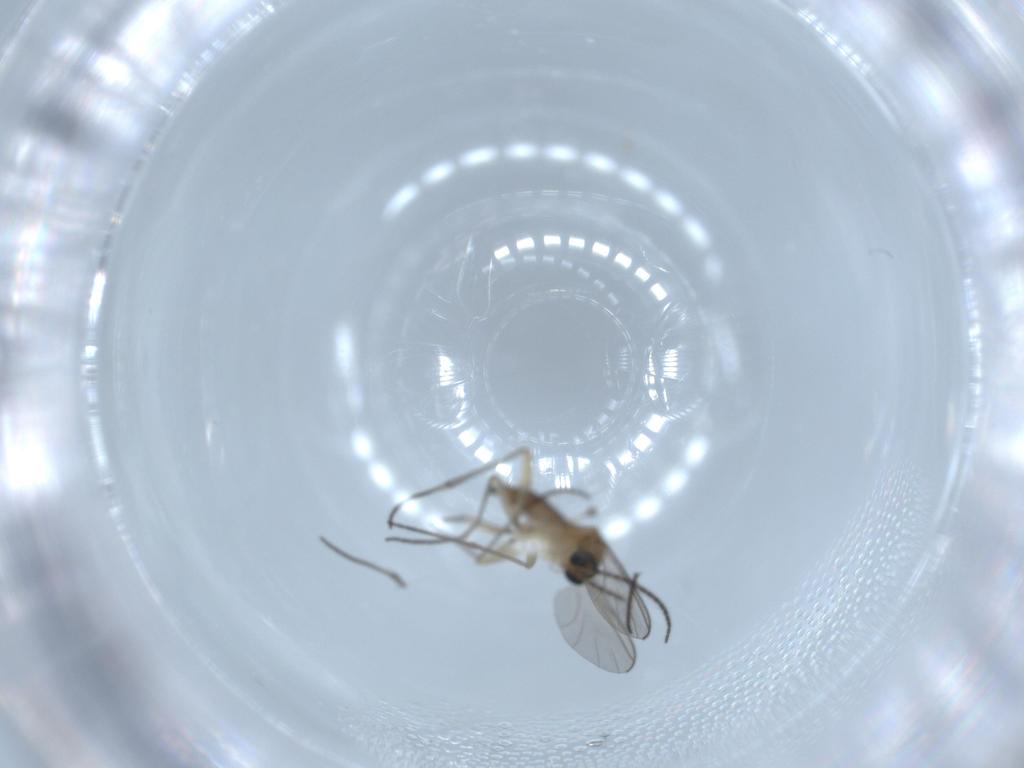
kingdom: Animalia
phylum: Arthropoda
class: Insecta
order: Diptera
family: Sciaridae
